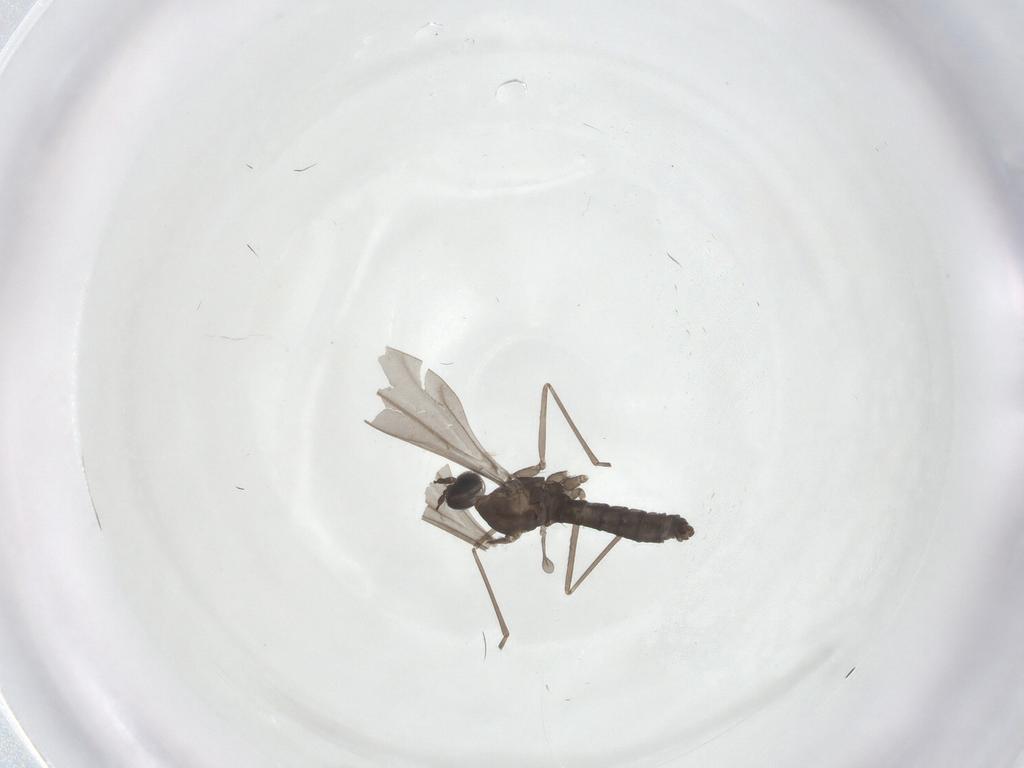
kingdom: Animalia
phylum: Arthropoda
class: Insecta
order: Diptera
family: Cecidomyiidae
